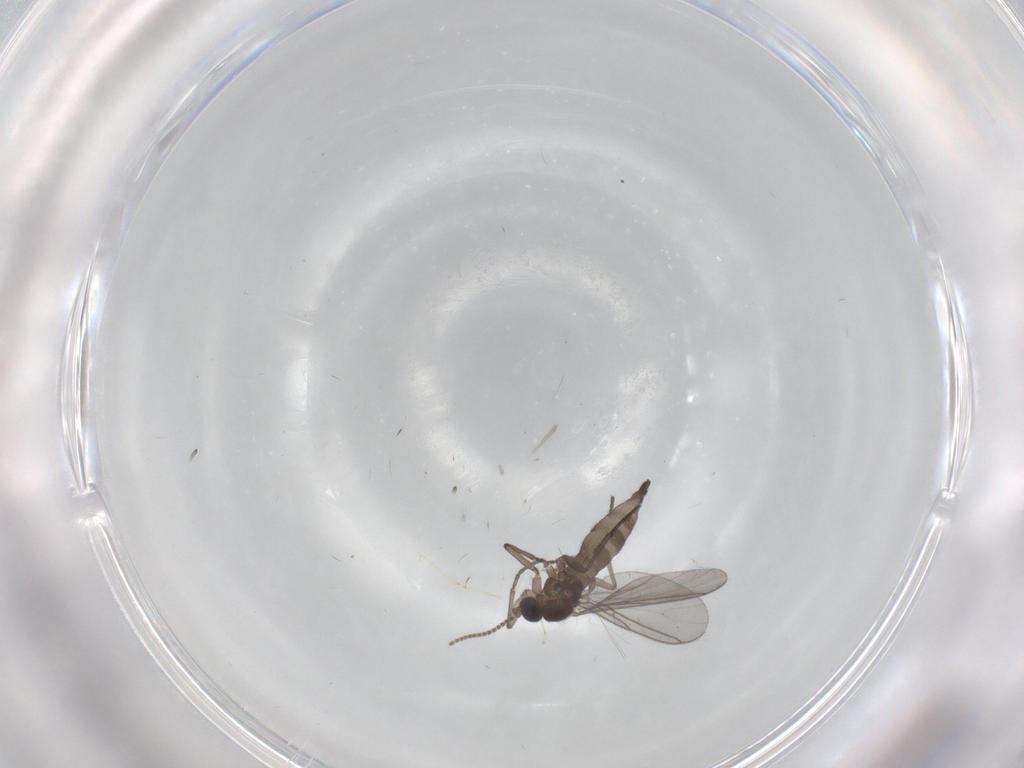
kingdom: Animalia
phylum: Arthropoda
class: Insecta
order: Diptera
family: Cecidomyiidae
